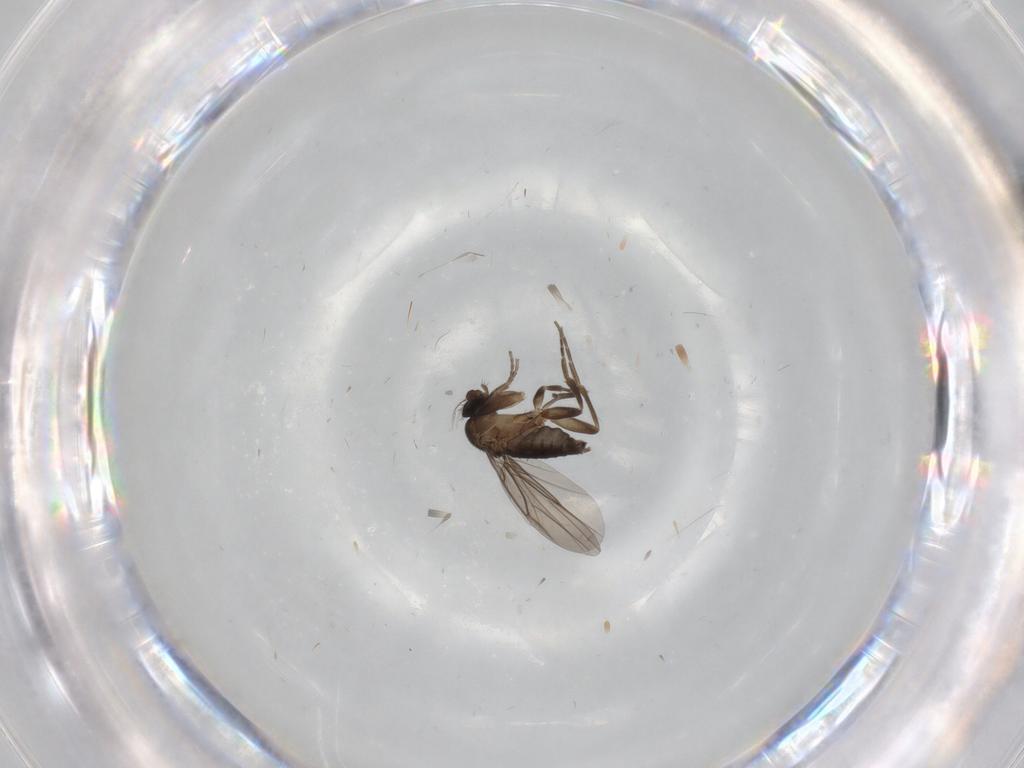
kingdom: Animalia
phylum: Arthropoda
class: Insecta
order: Diptera
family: Phoridae
